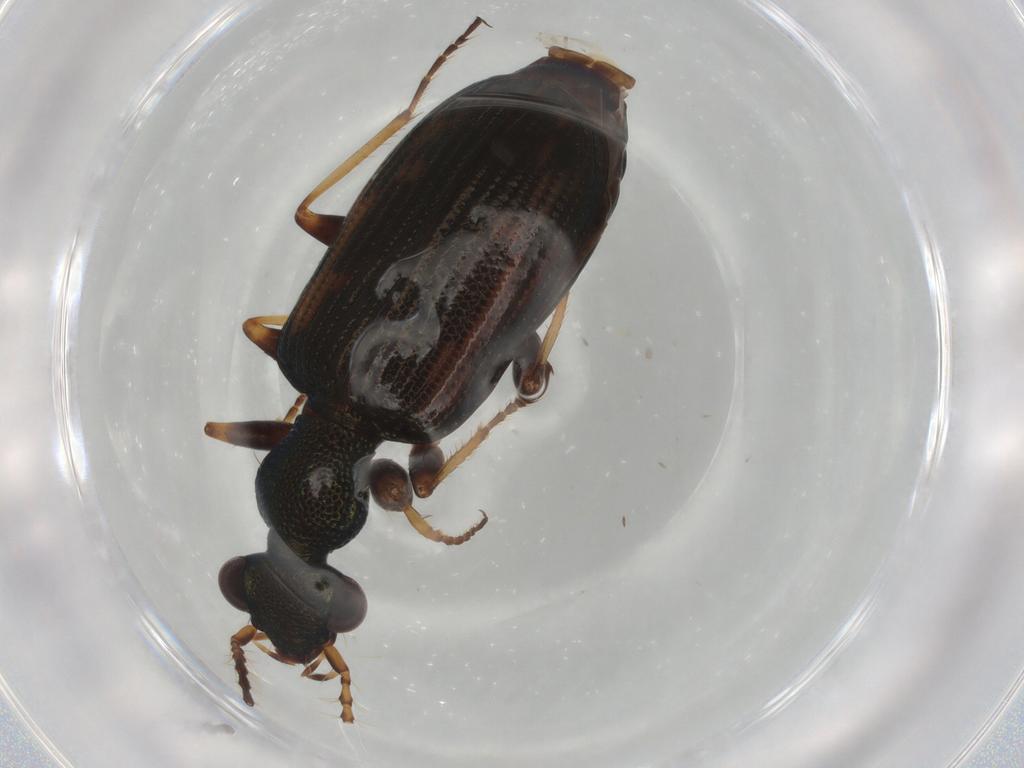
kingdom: Animalia
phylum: Arthropoda
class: Insecta
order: Coleoptera
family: Carabidae
